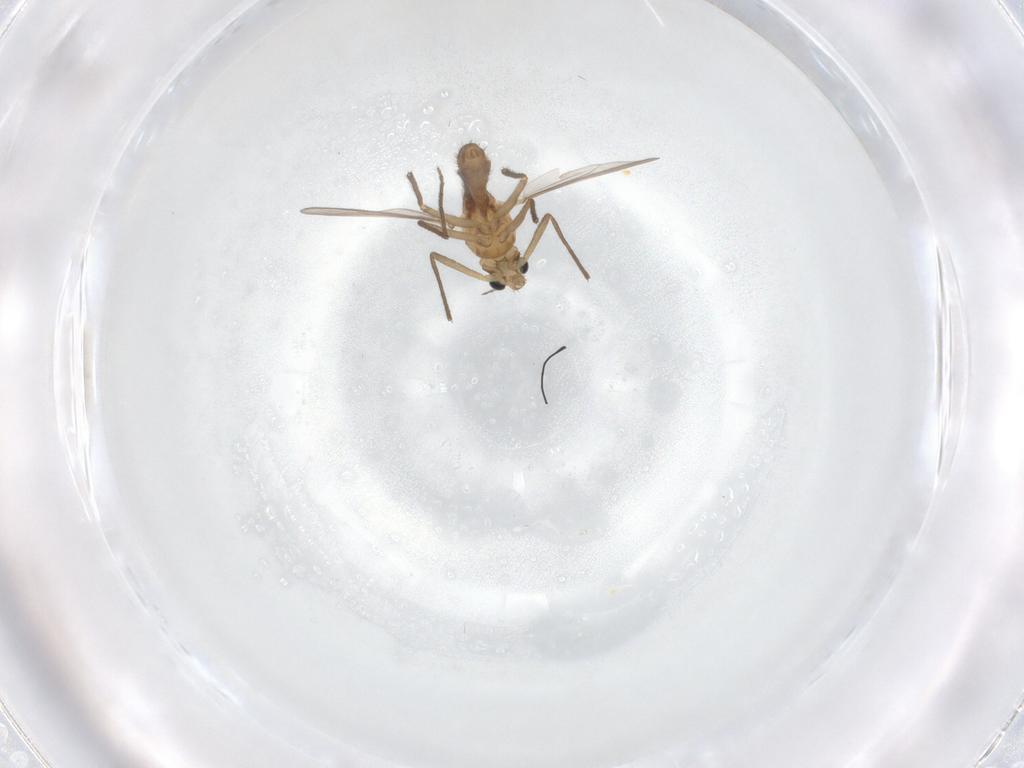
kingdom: Animalia
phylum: Arthropoda
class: Insecta
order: Diptera
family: Chironomidae
